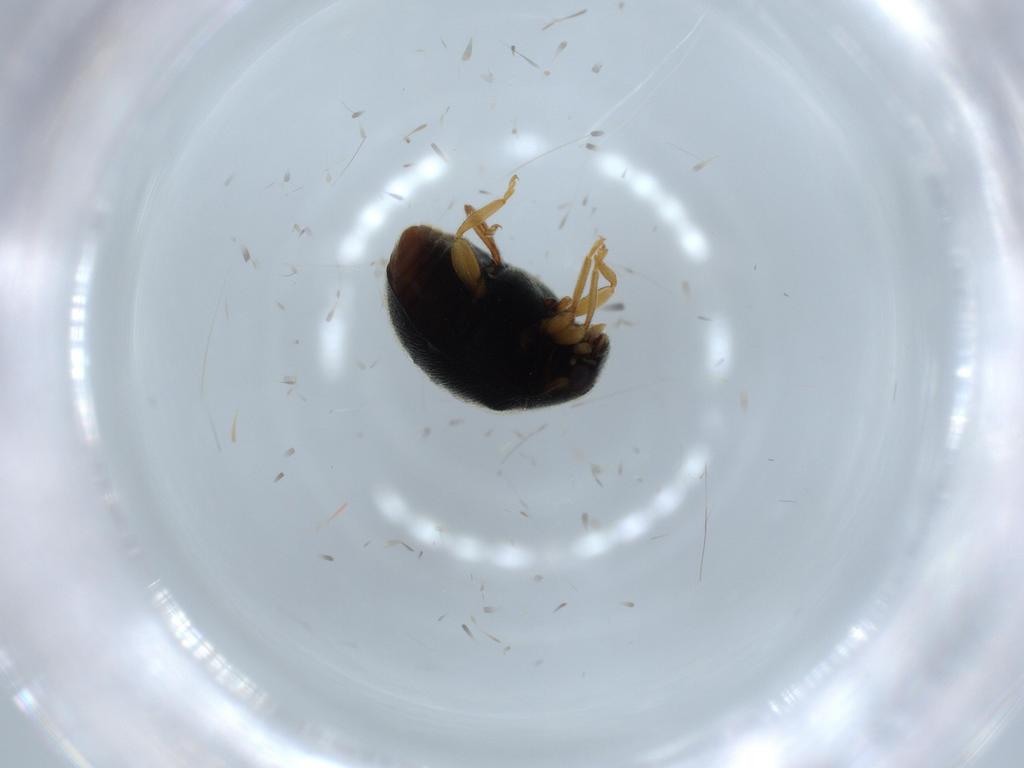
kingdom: Animalia
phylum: Arthropoda
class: Insecta
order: Coleoptera
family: Coccinellidae
